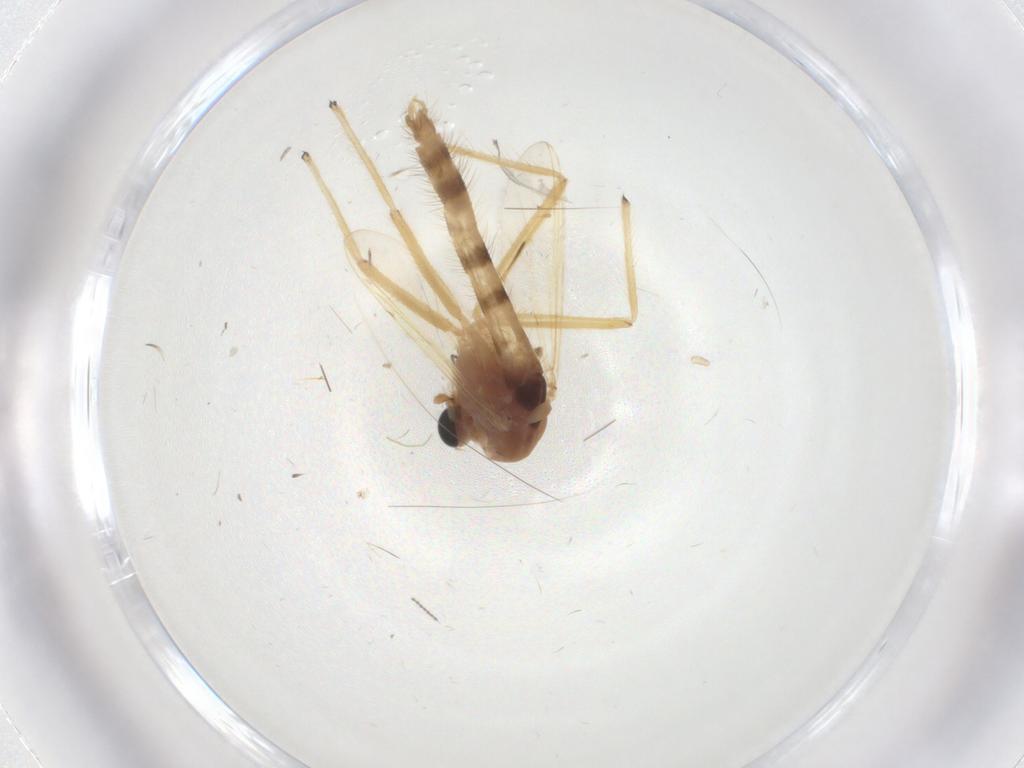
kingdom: Animalia
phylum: Arthropoda
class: Insecta
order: Diptera
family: Chironomidae
